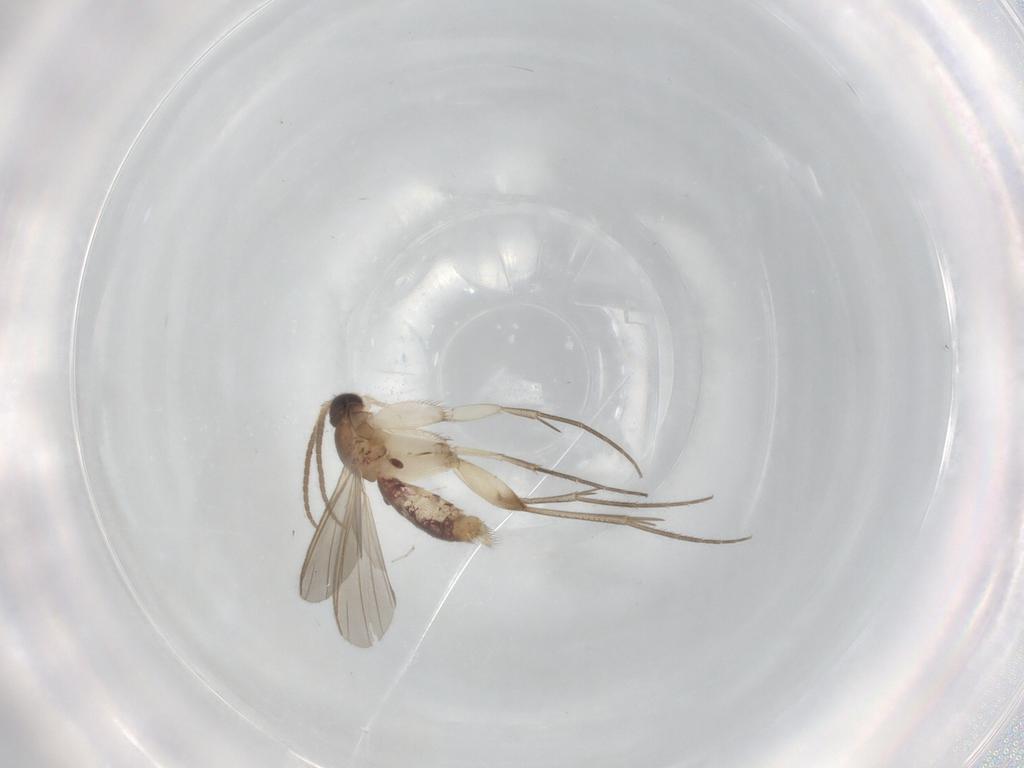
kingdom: Animalia
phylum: Arthropoda
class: Insecta
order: Diptera
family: Mycetophilidae
